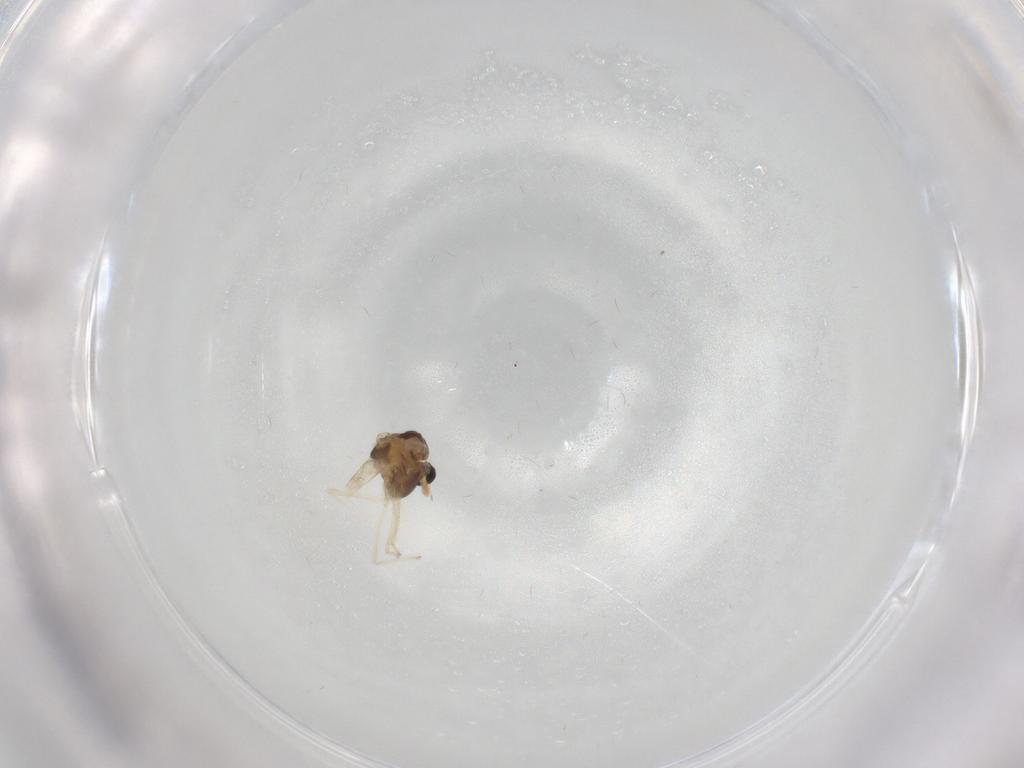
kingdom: Animalia
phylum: Arthropoda
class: Insecta
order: Diptera
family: Chironomidae
